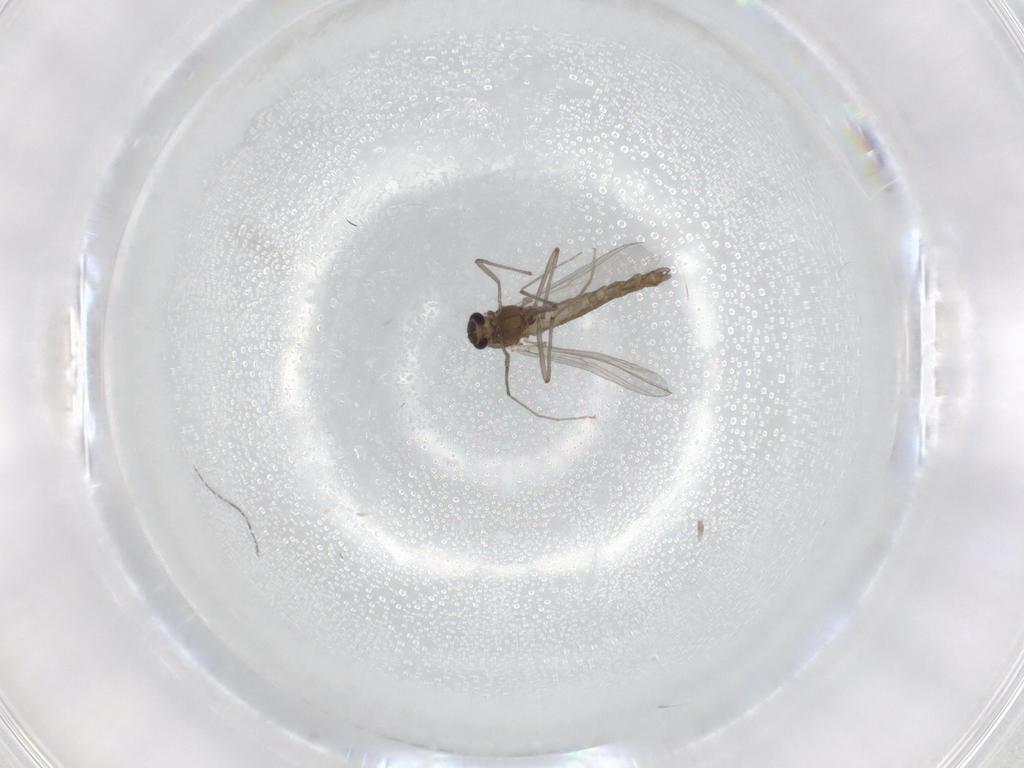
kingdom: Animalia
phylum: Arthropoda
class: Insecta
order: Diptera
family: Chironomidae
